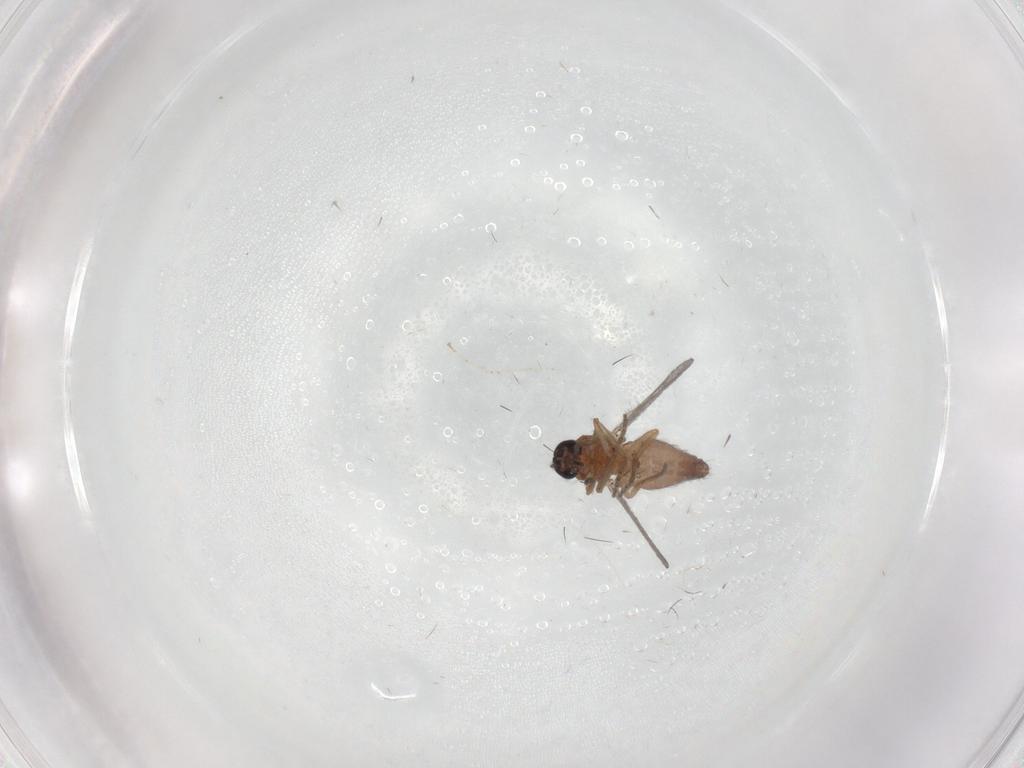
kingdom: Animalia
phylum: Arthropoda
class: Insecta
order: Diptera
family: Ceratopogonidae
